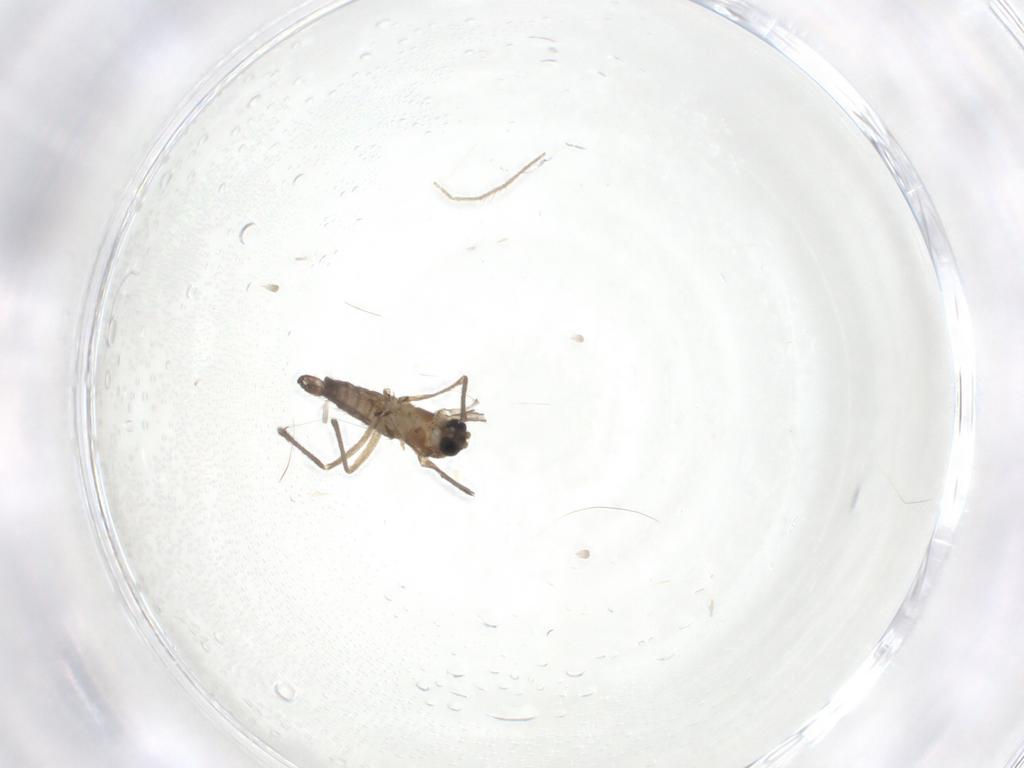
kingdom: Animalia
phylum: Arthropoda
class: Insecta
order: Diptera
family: Sciaridae
